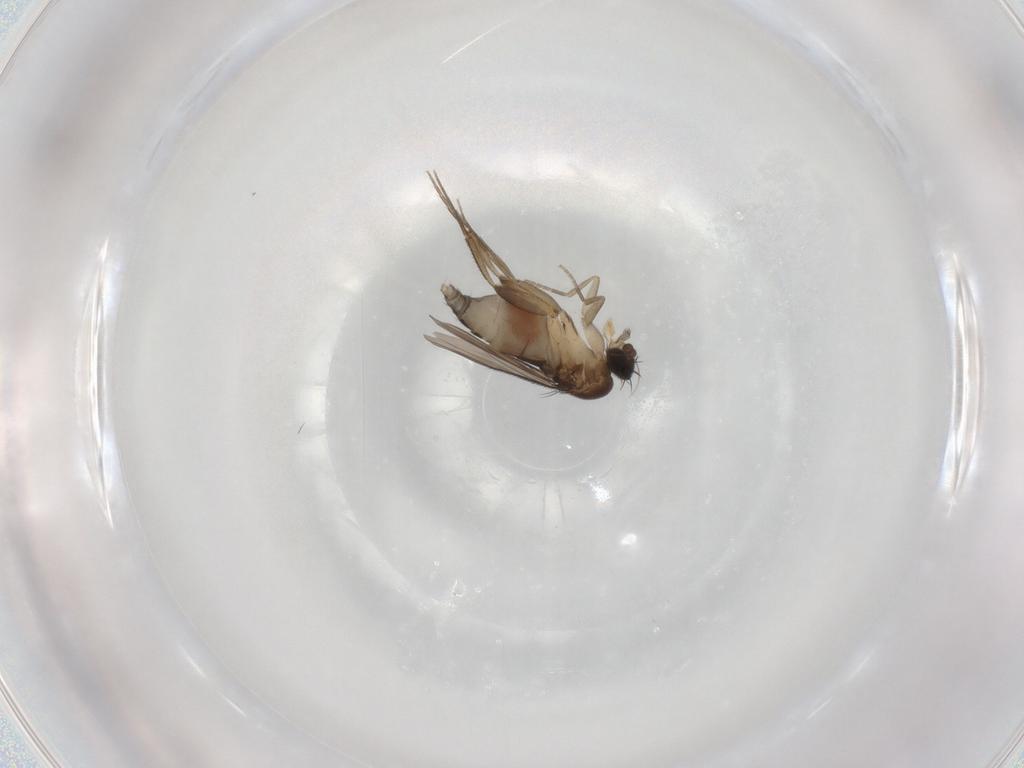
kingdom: Animalia
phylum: Arthropoda
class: Insecta
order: Diptera
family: Phoridae
